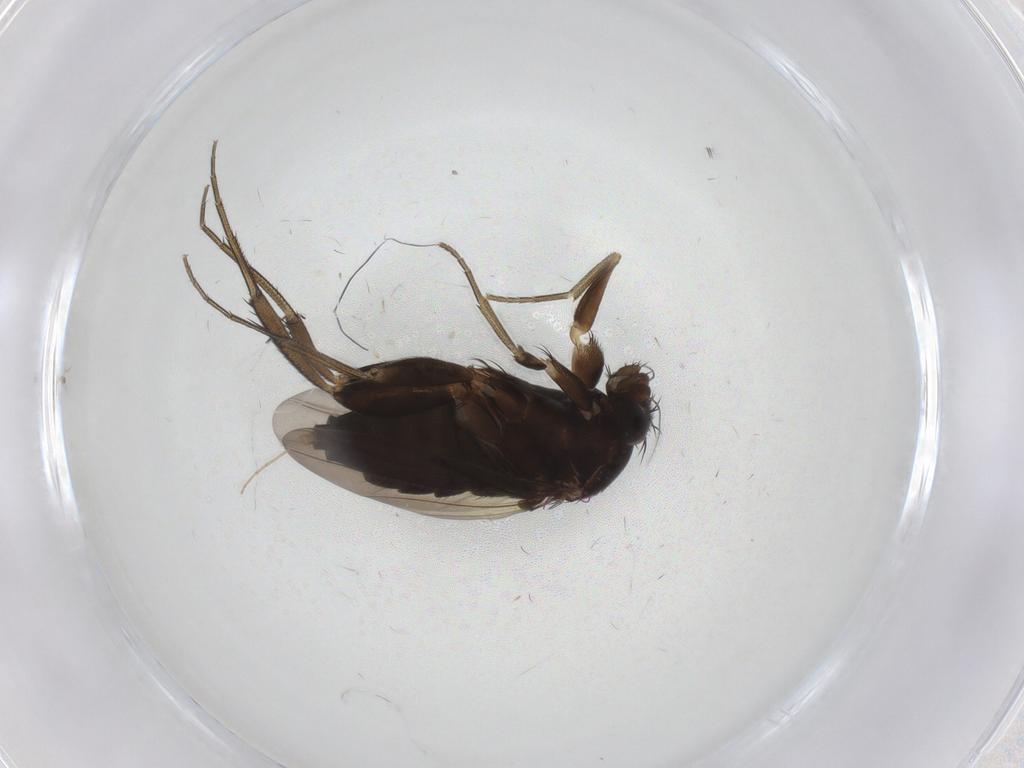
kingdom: Animalia
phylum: Arthropoda
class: Insecta
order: Diptera
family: Phoridae
